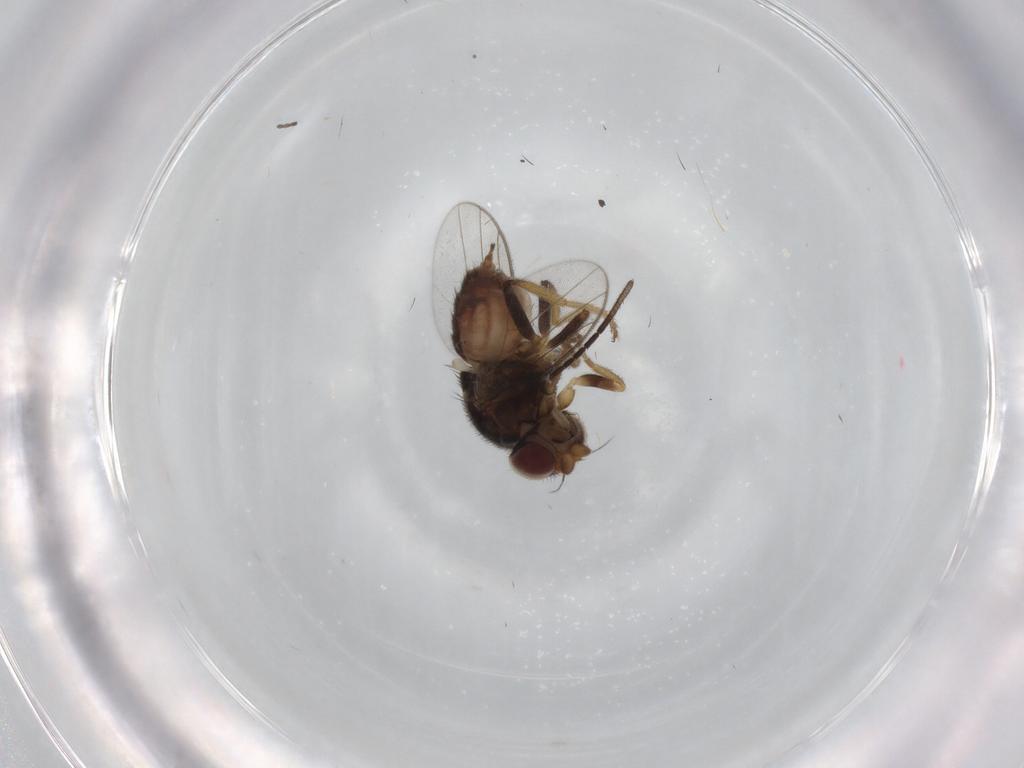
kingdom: Animalia
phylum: Arthropoda
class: Insecta
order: Diptera
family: Chloropidae
